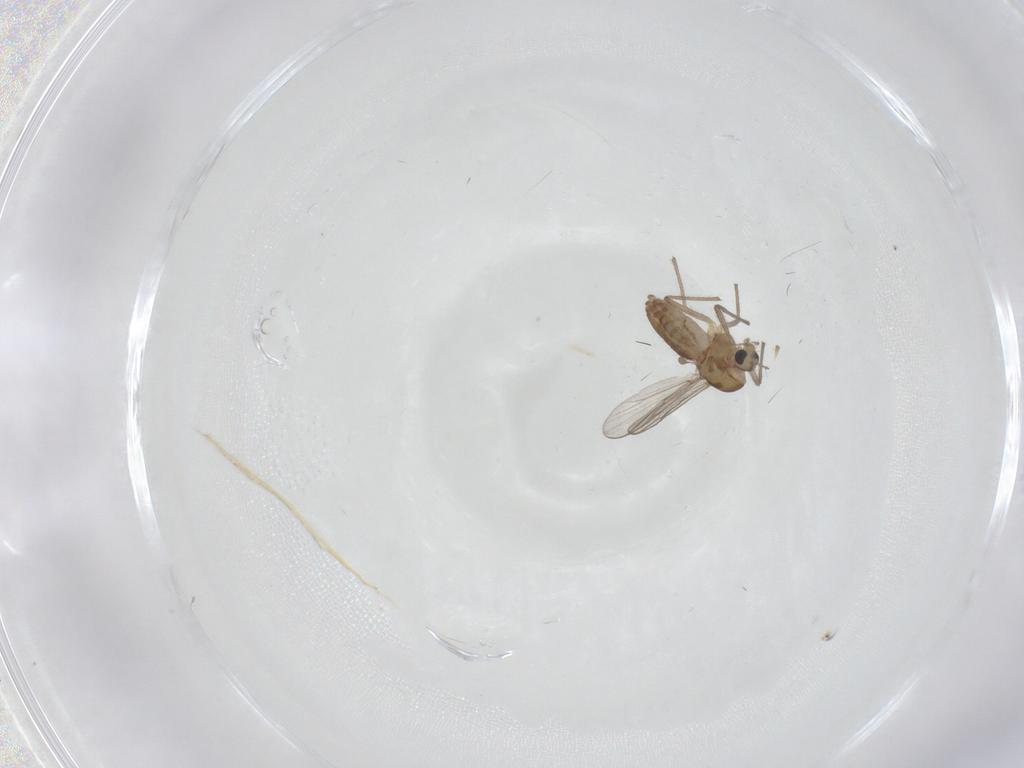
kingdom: Animalia
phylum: Arthropoda
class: Insecta
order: Diptera
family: Chironomidae
